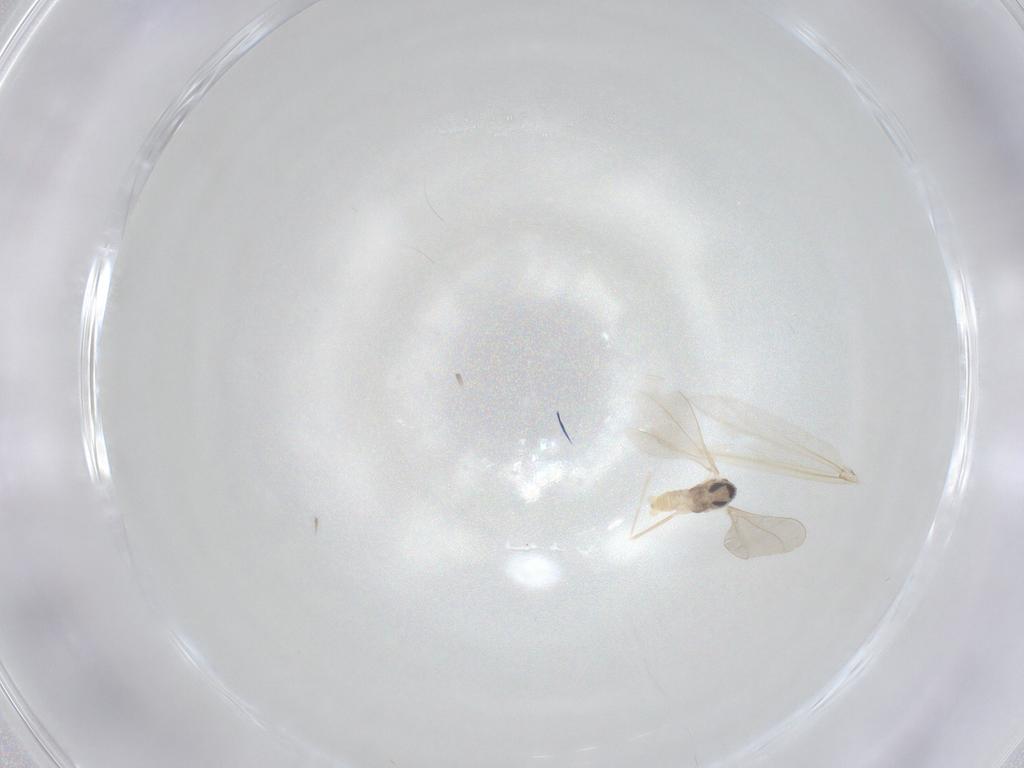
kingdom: Animalia
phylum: Arthropoda
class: Insecta
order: Diptera
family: Cecidomyiidae
